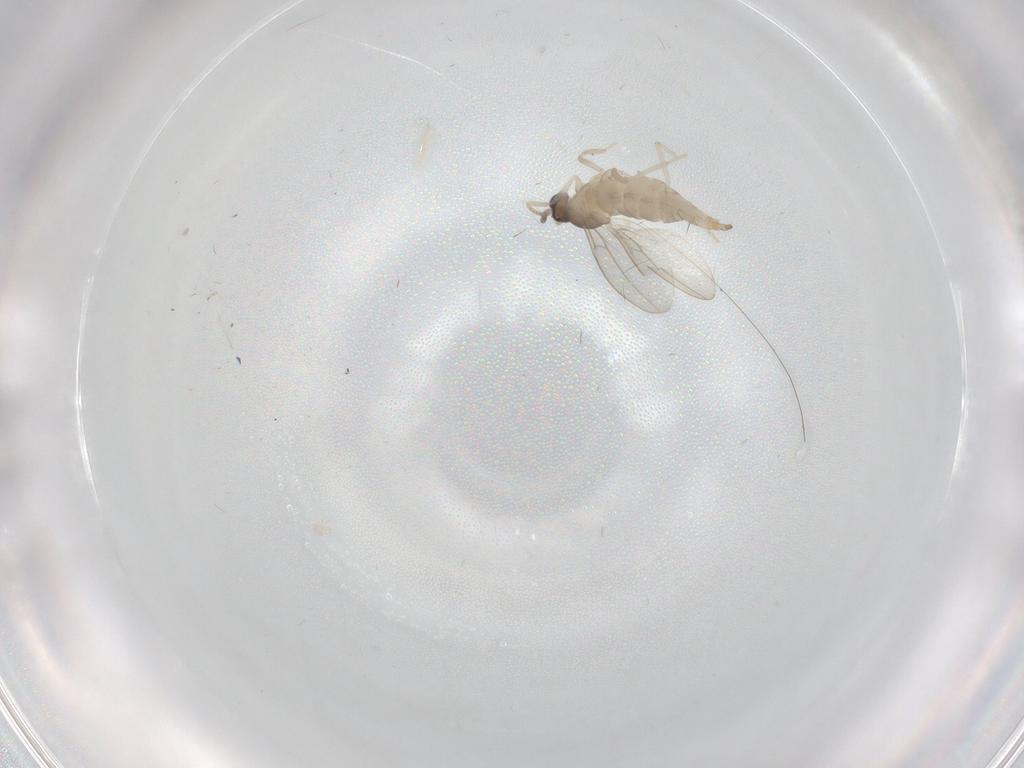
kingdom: Animalia
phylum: Arthropoda
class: Insecta
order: Diptera
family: Cecidomyiidae
